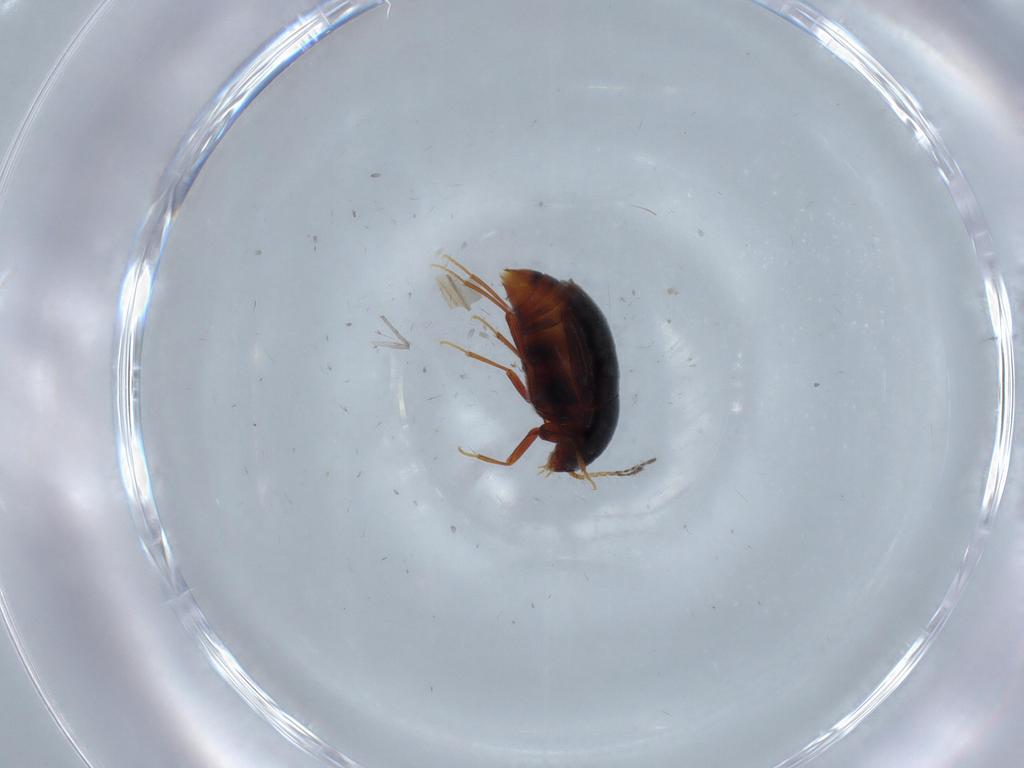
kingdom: Animalia
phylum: Arthropoda
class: Insecta
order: Coleoptera
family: Staphylinidae
